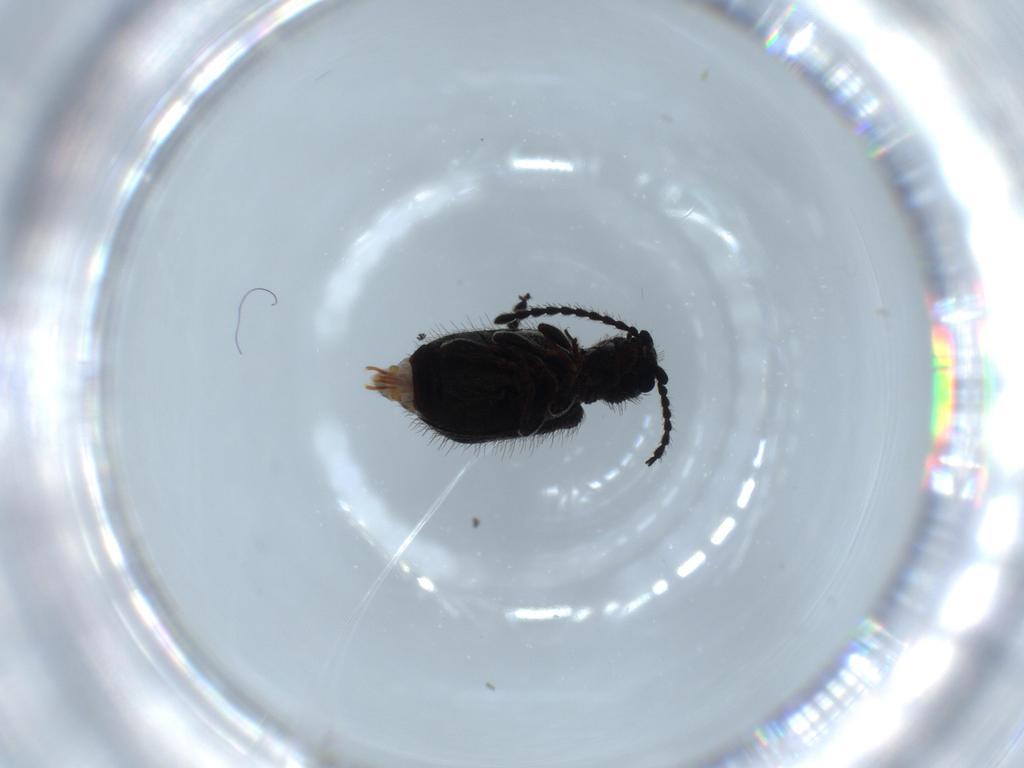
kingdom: Animalia
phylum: Arthropoda
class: Insecta
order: Coleoptera
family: Ptinidae
